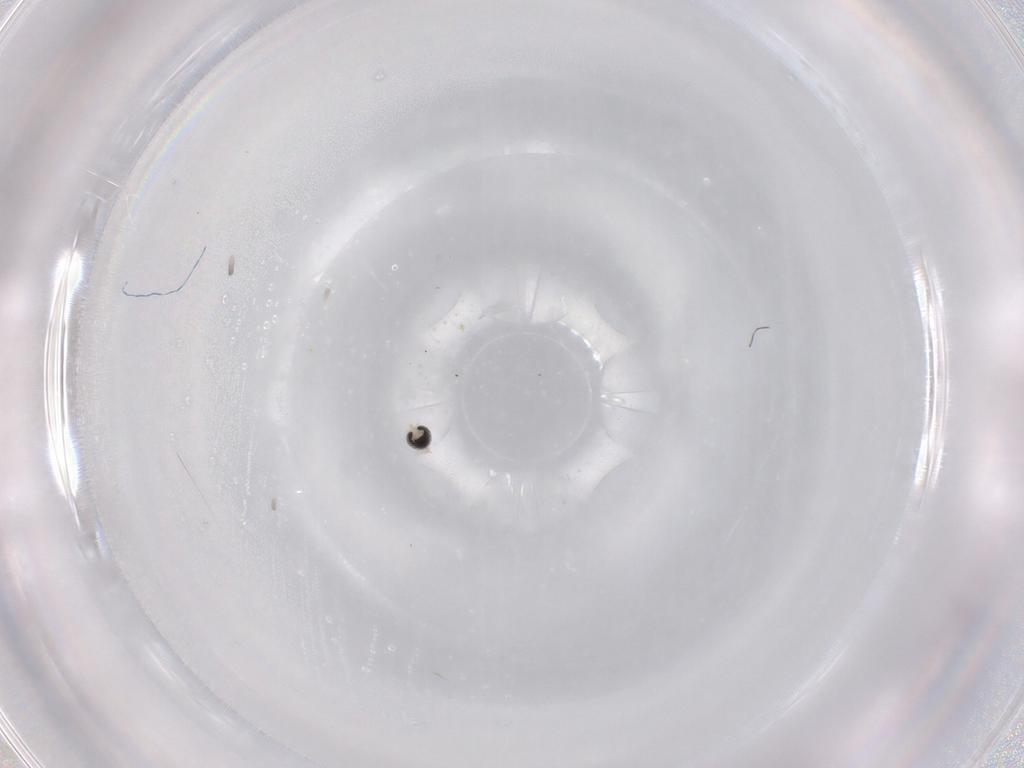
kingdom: Animalia
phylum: Arthropoda
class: Insecta
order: Diptera
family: Cecidomyiidae
